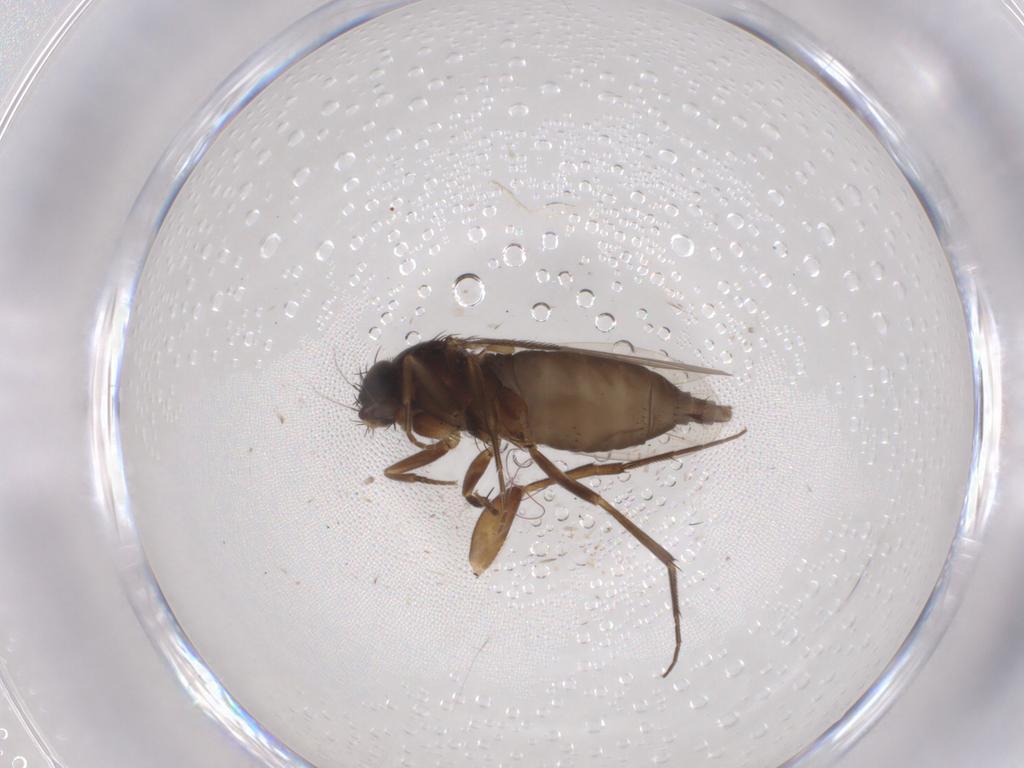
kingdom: Animalia
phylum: Arthropoda
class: Insecta
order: Diptera
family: Phoridae
